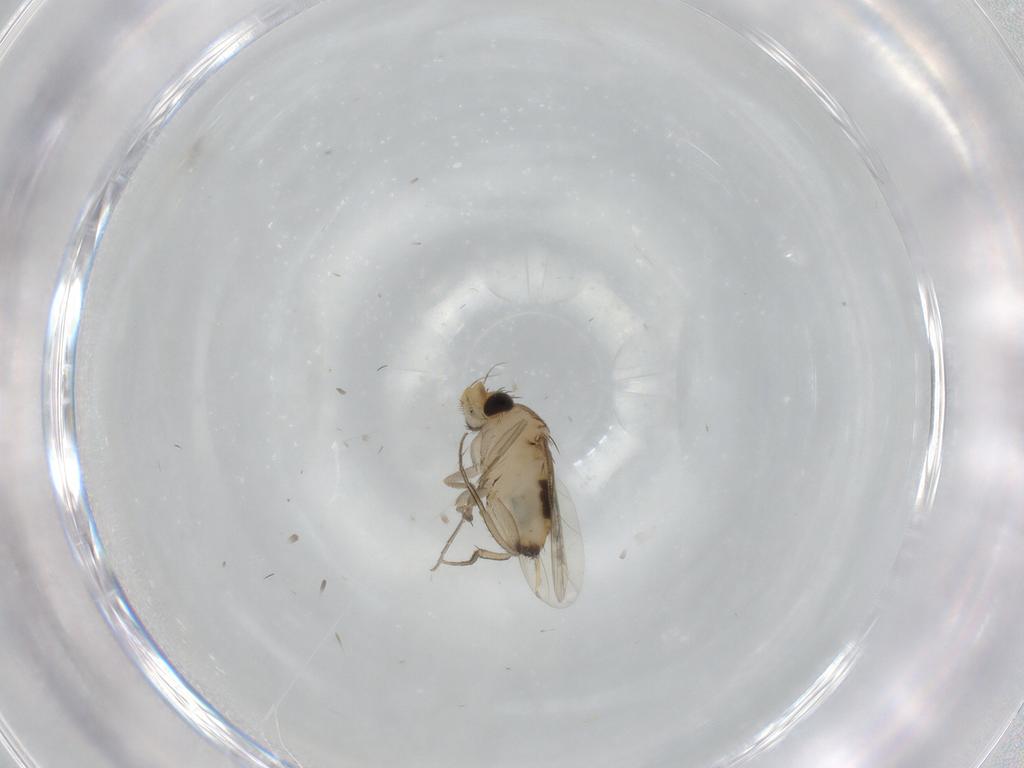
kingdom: Animalia
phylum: Arthropoda
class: Insecta
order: Diptera
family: Phoridae
